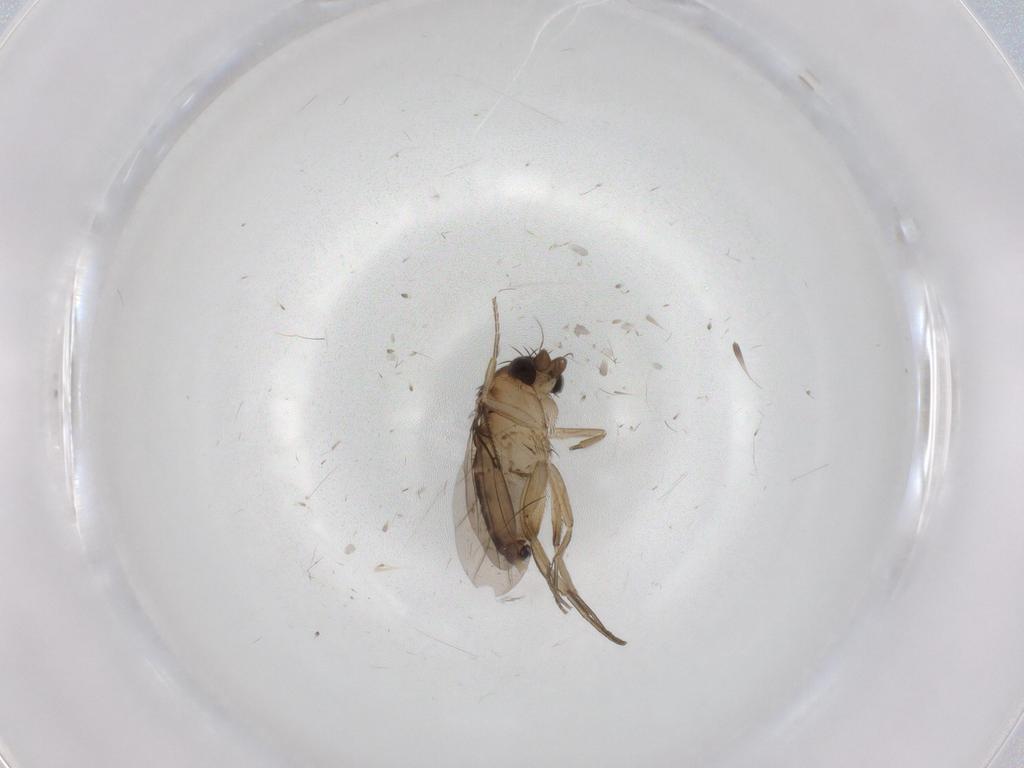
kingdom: Animalia
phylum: Arthropoda
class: Insecta
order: Diptera
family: Phoridae
